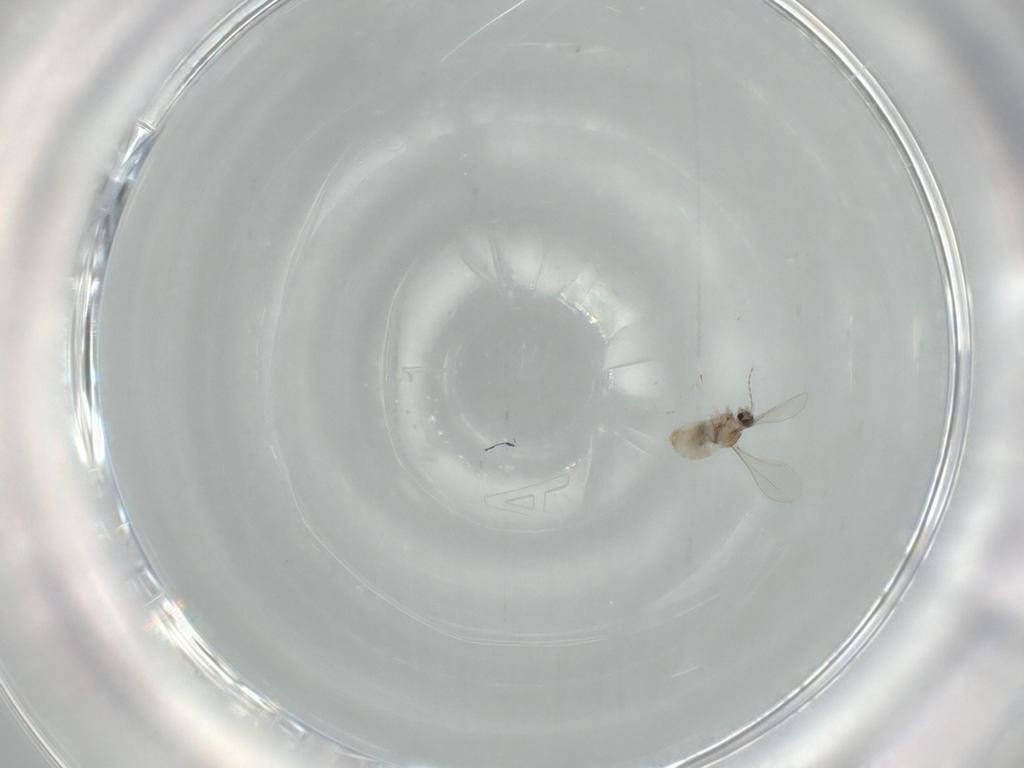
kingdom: Animalia
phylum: Arthropoda
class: Insecta
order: Diptera
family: Cecidomyiidae
